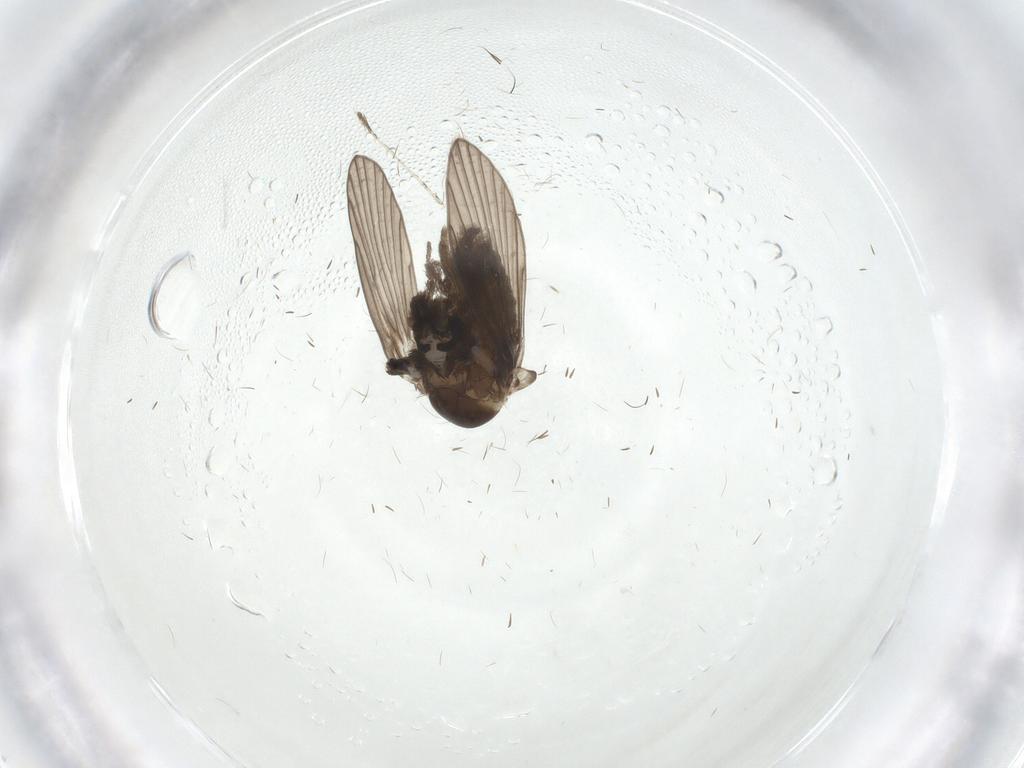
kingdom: Animalia
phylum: Arthropoda
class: Insecta
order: Diptera
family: Psychodidae
